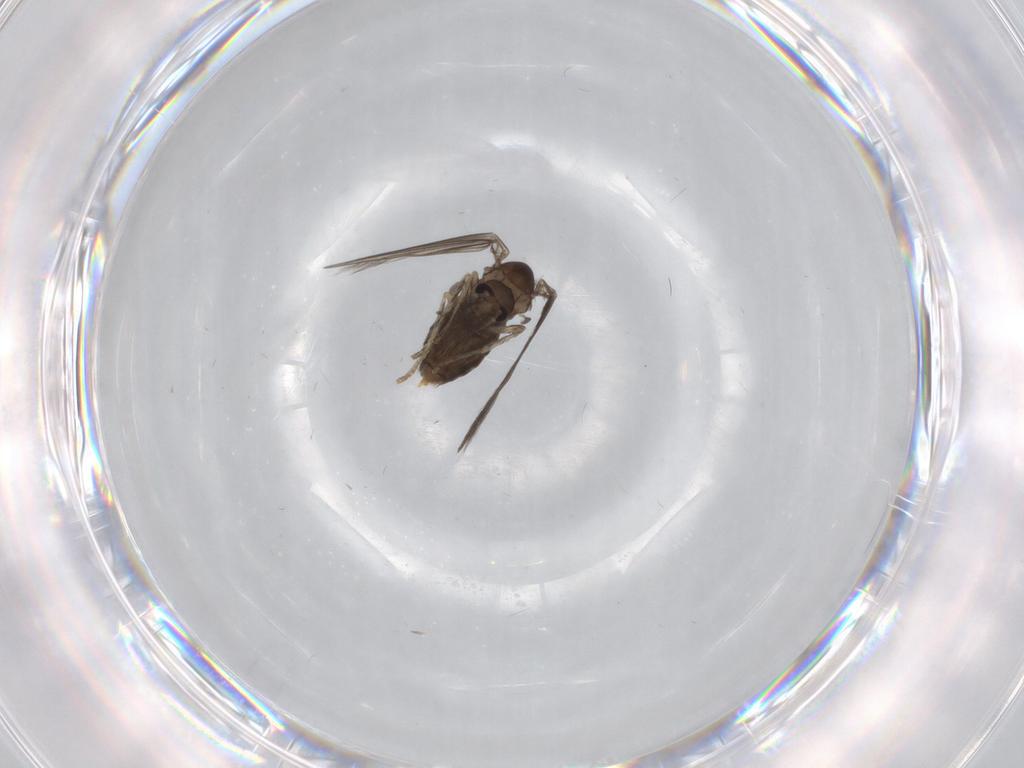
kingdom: Animalia
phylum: Arthropoda
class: Insecta
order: Diptera
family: Psychodidae
